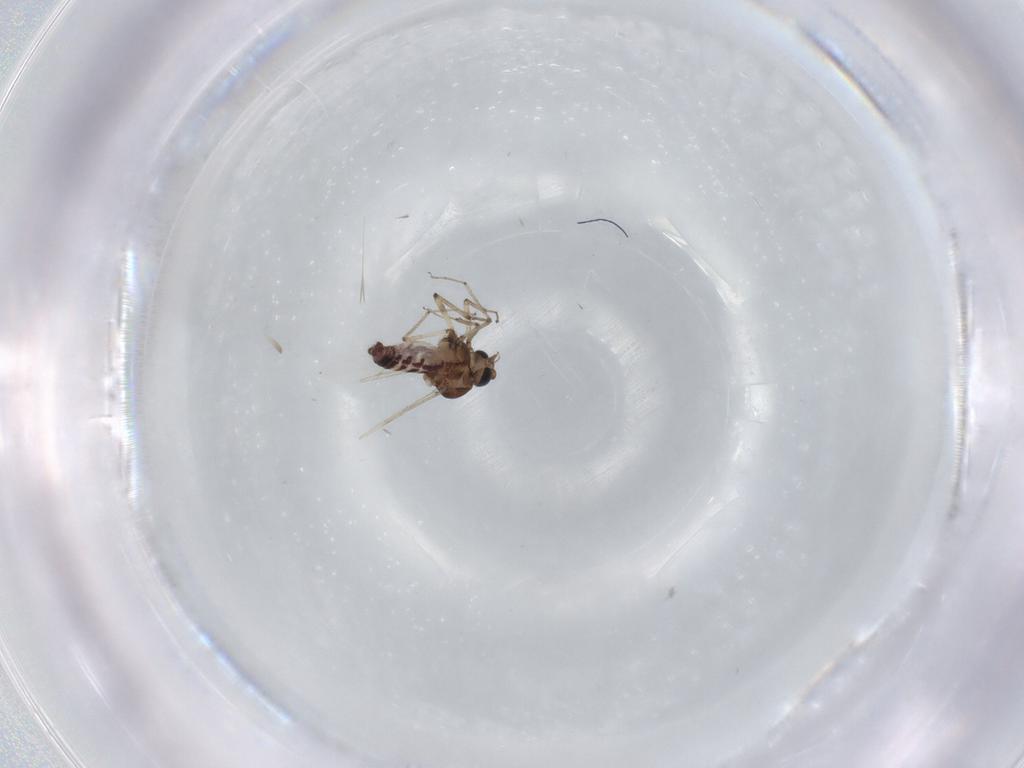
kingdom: Animalia
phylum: Arthropoda
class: Insecta
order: Diptera
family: Ceratopogonidae
